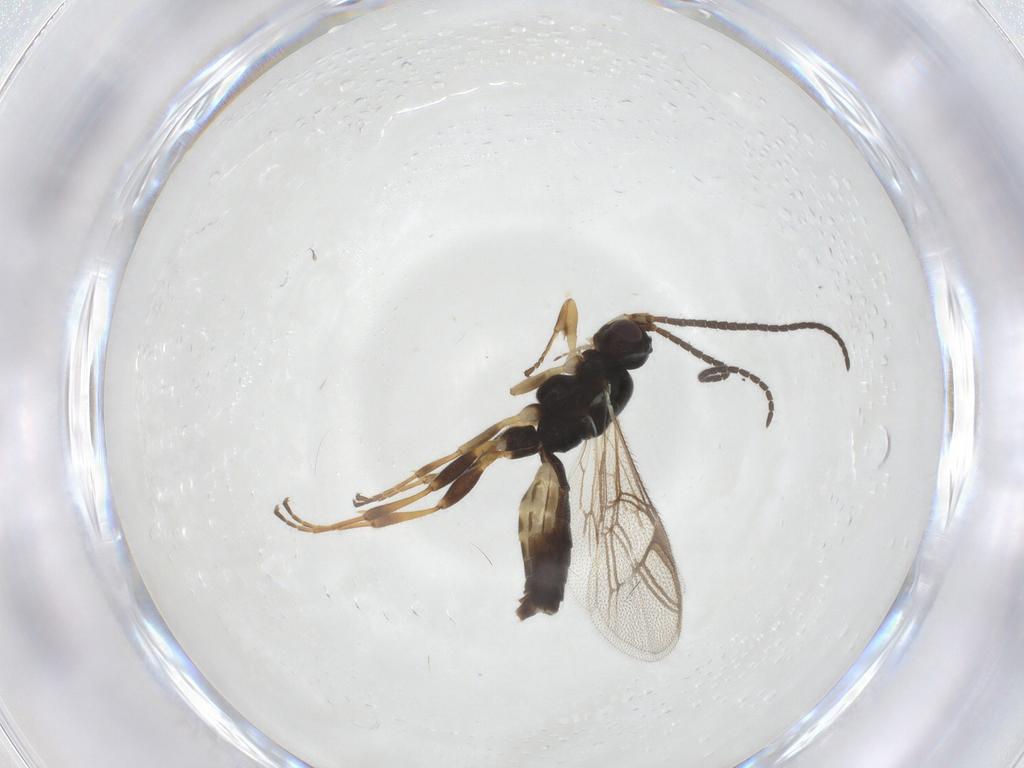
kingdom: Animalia
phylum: Arthropoda
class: Insecta
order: Hymenoptera
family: Ichneumonidae
